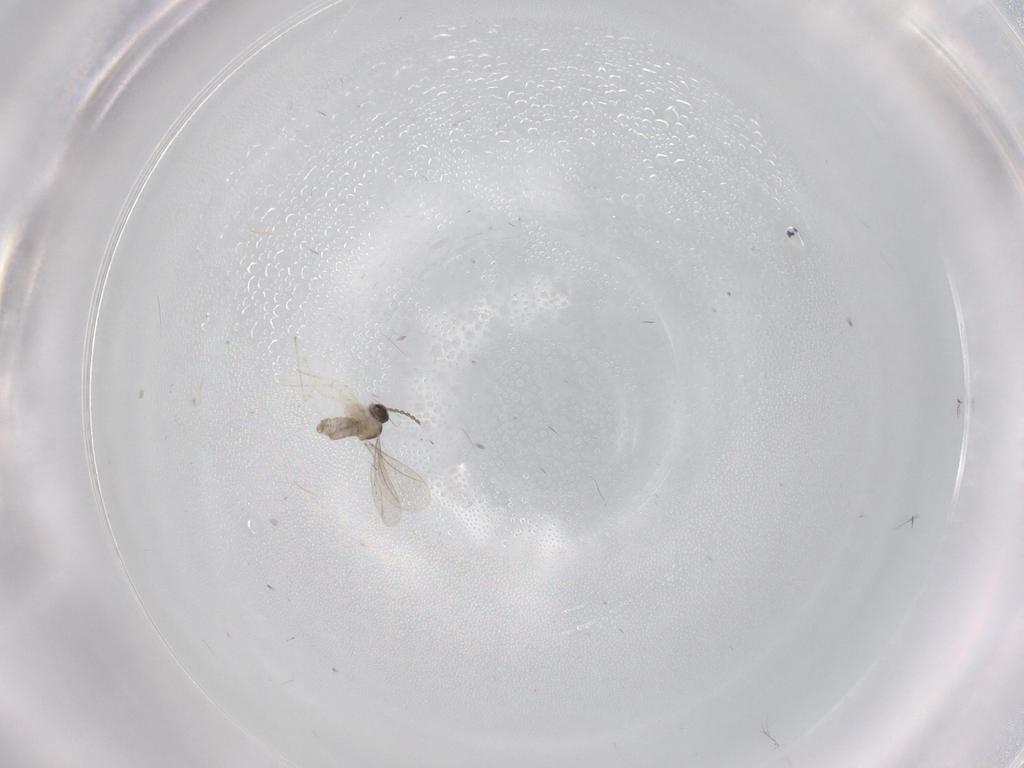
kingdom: Animalia
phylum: Arthropoda
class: Insecta
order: Diptera
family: Cecidomyiidae
